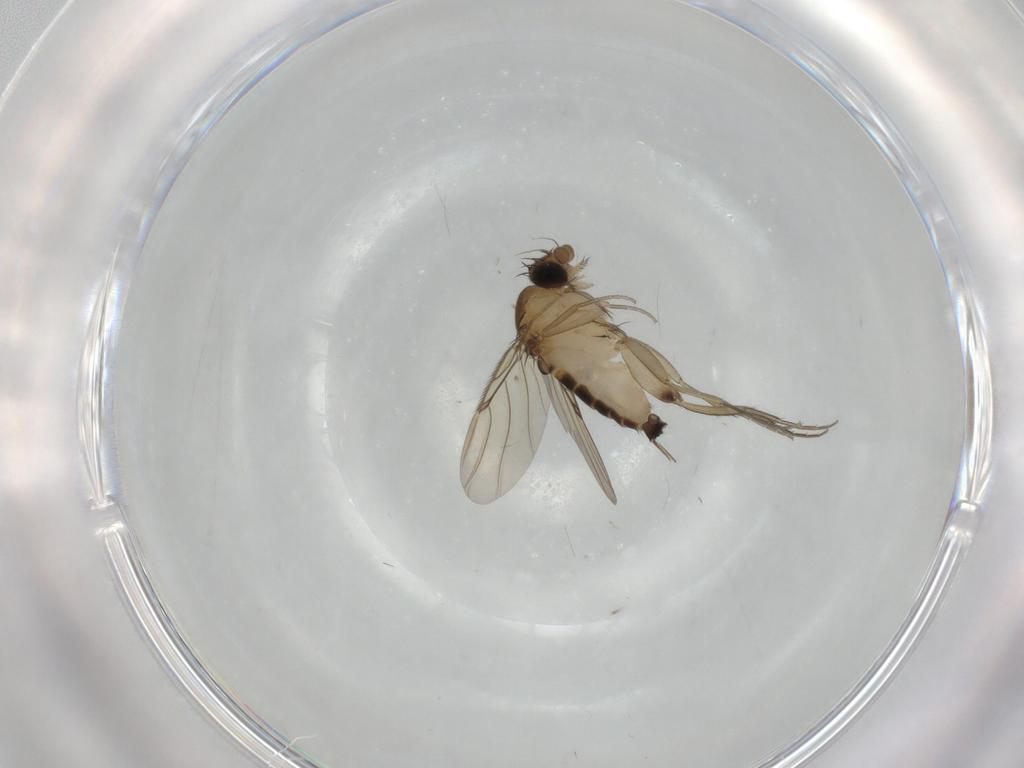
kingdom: Animalia
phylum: Arthropoda
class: Insecta
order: Diptera
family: Phoridae
